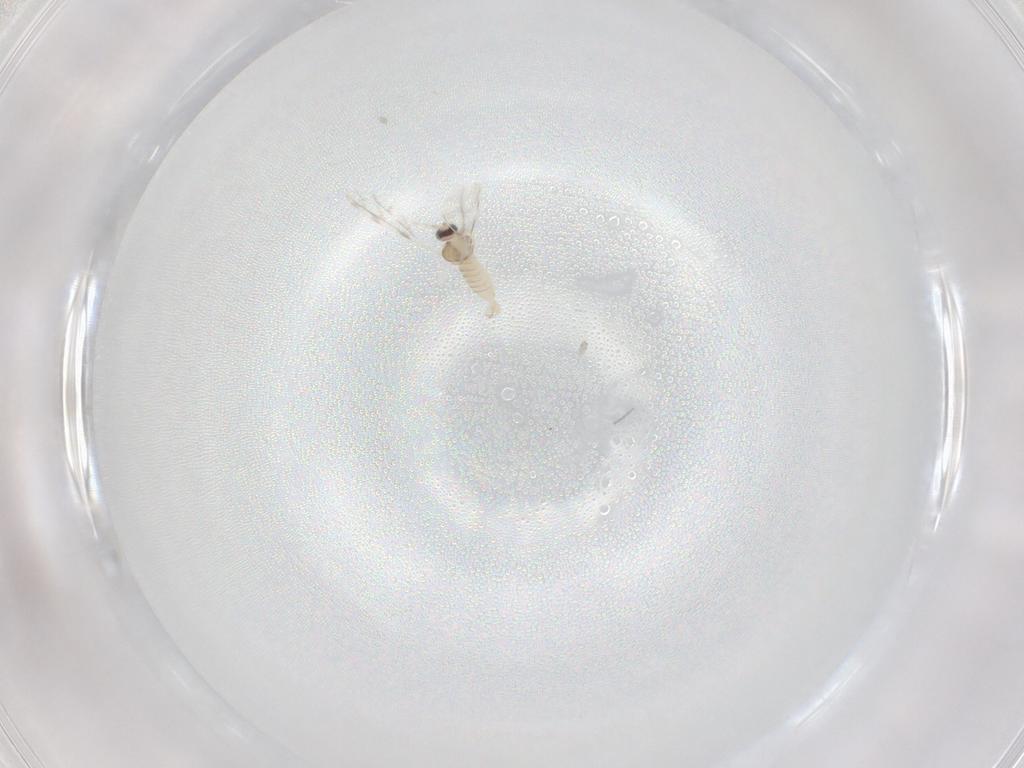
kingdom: Animalia
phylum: Arthropoda
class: Insecta
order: Diptera
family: Cecidomyiidae
